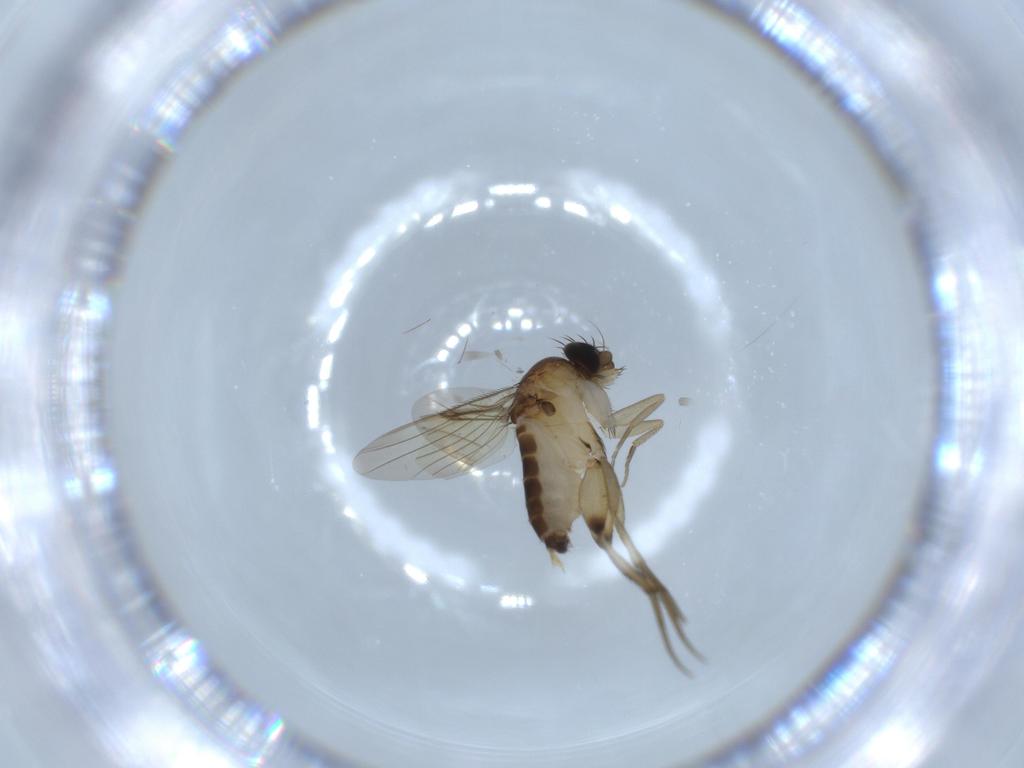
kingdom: Animalia
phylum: Arthropoda
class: Insecta
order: Diptera
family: Phoridae
